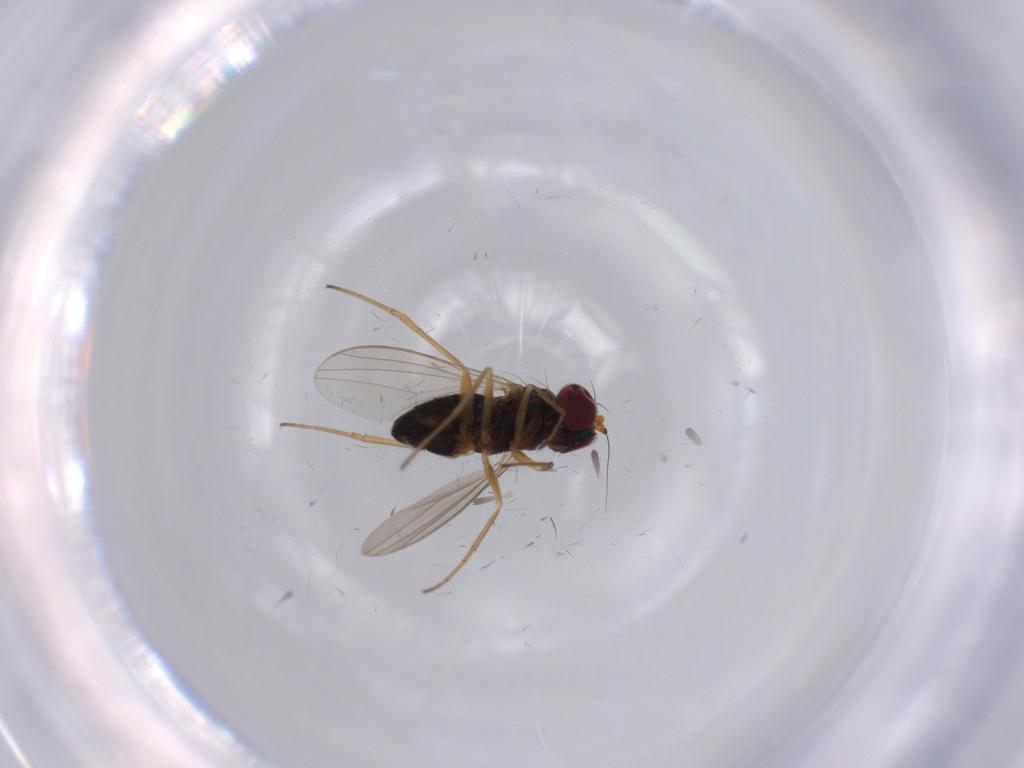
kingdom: Animalia
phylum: Arthropoda
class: Insecta
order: Diptera
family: Dolichopodidae
